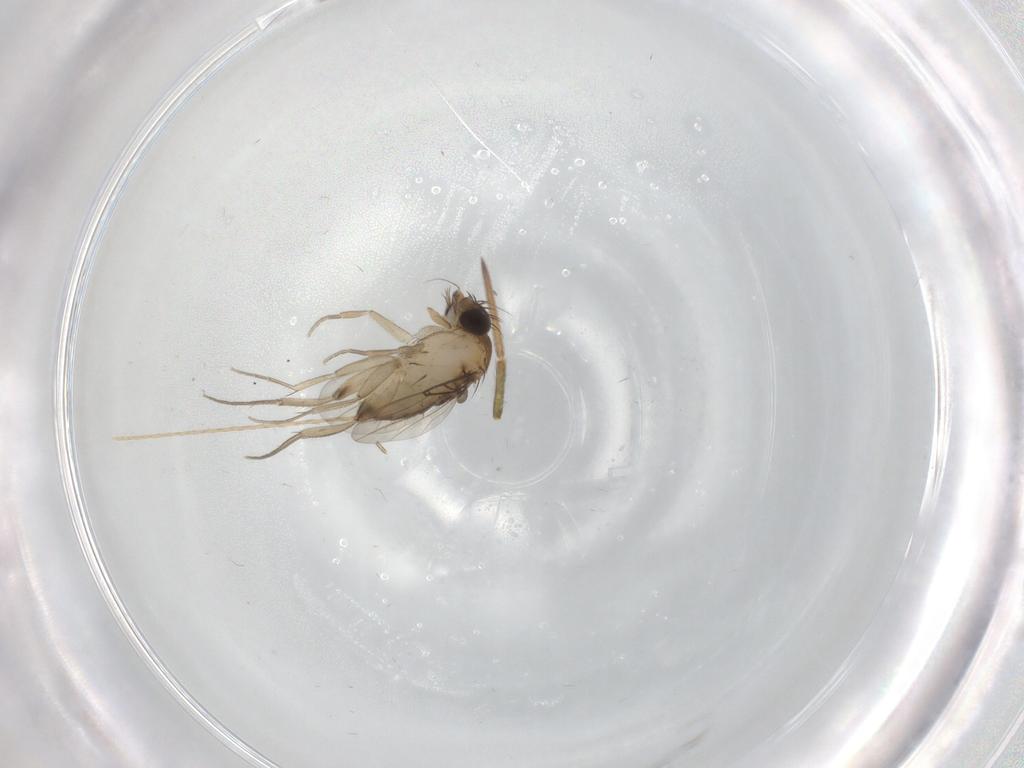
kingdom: Animalia
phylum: Arthropoda
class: Insecta
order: Diptera
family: Phoridae
